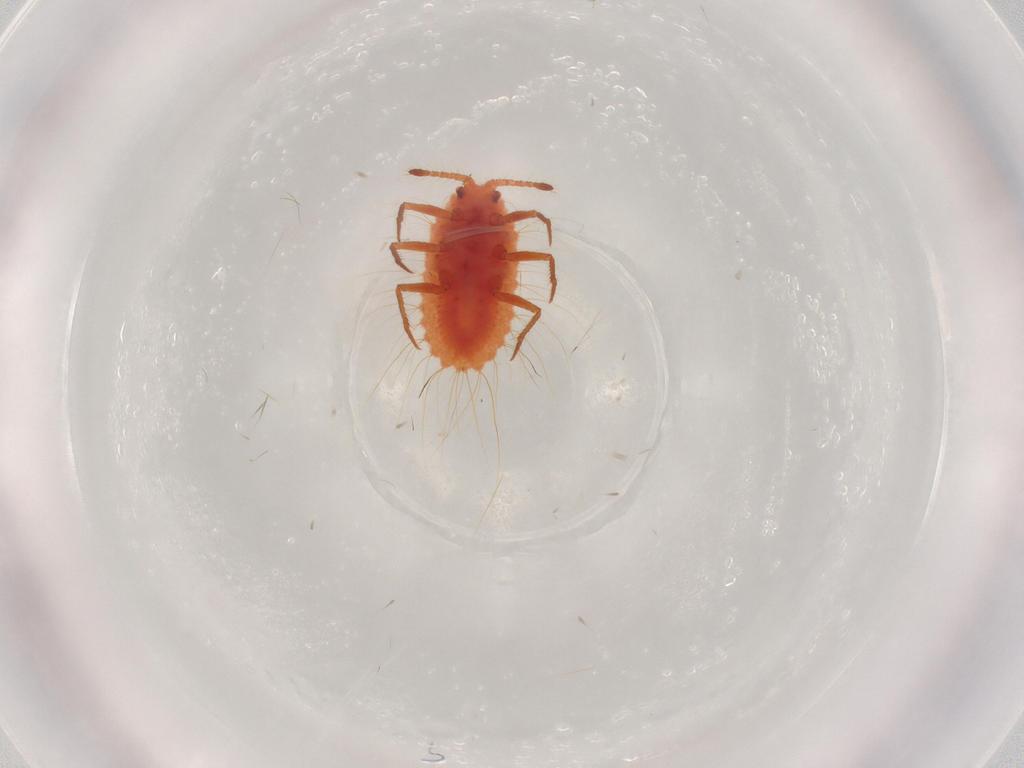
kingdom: Animalia
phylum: Arthropoda
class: Insecta
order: Hemiptera
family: Monophlebidae
